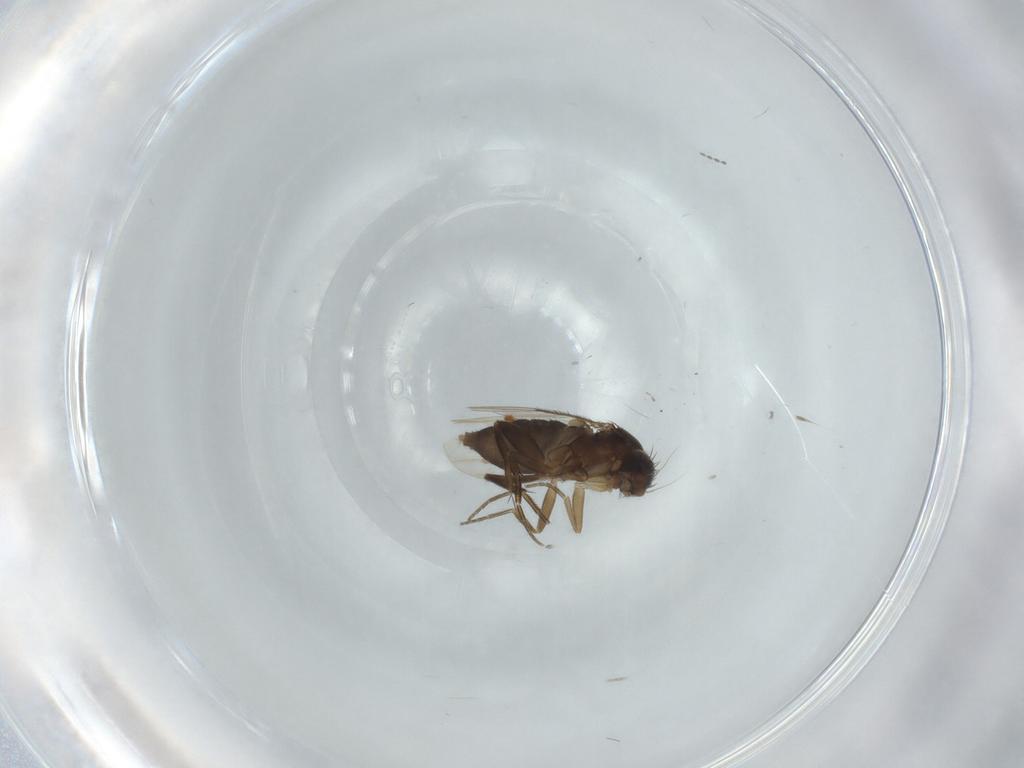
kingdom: Animalia
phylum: Arthropoda
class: Insecta
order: Diptera
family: Phoridae
